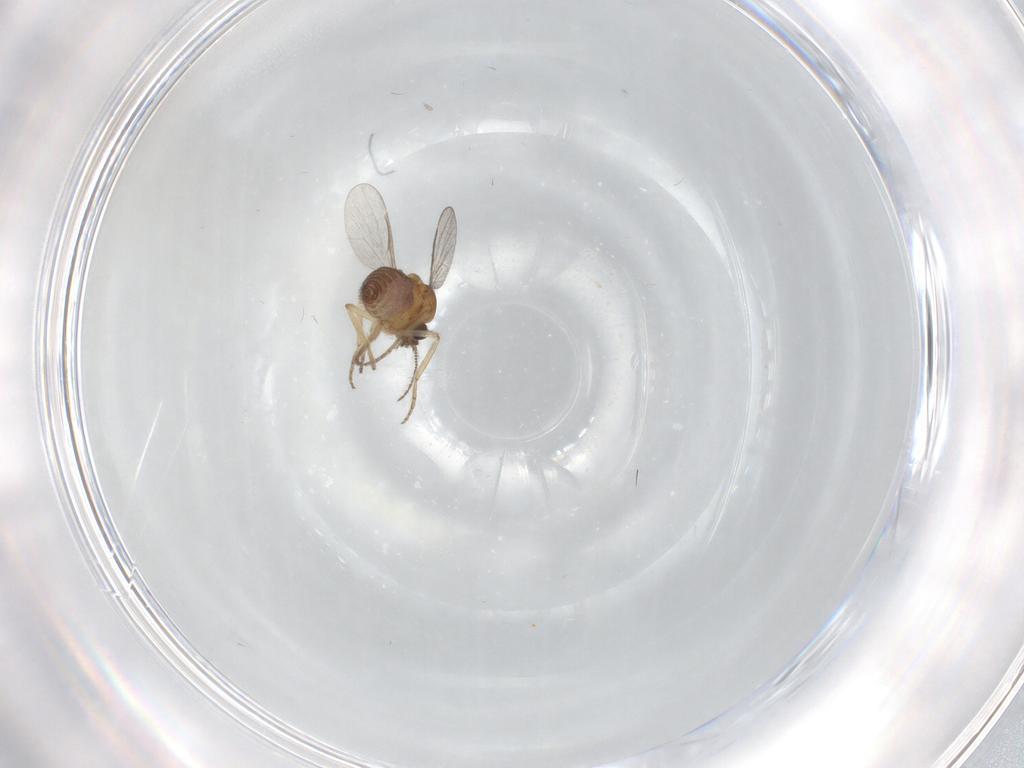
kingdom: Animalia
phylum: Arthropoda
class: Insecta
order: Diptera
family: Ceratopogonidae
